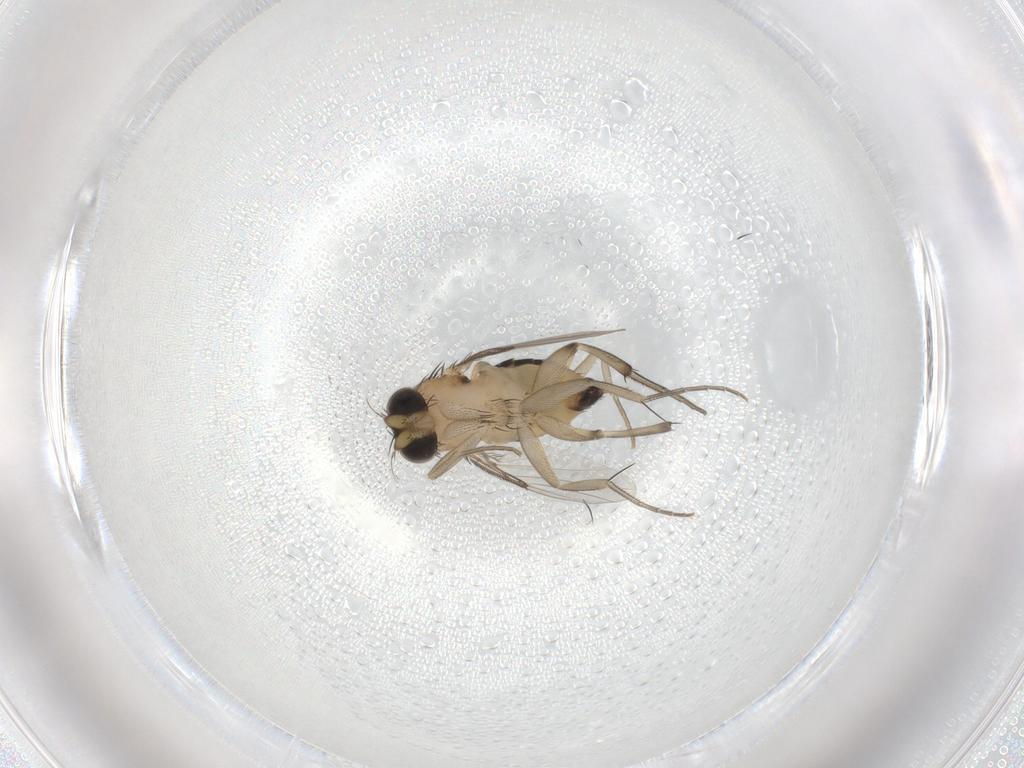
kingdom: Animalia
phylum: Arthropoda
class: Insecta
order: Diptera
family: Phoridae
